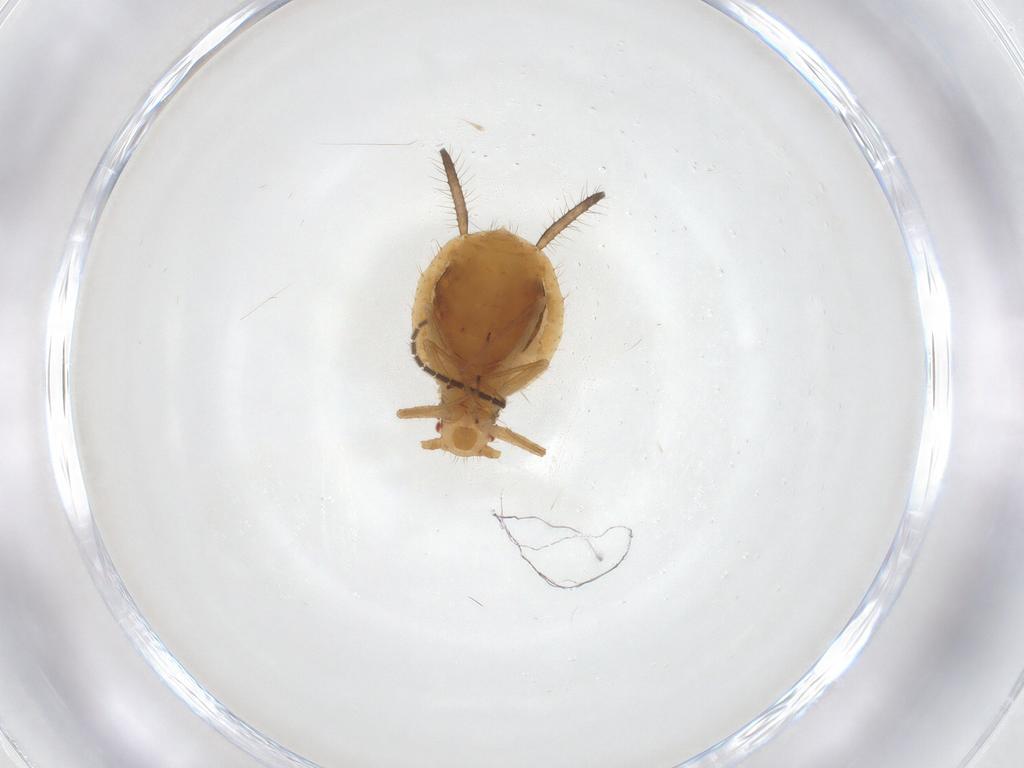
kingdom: Animalia
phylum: Arthropoda
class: Insecta
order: Hemiptera
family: Aphididae
